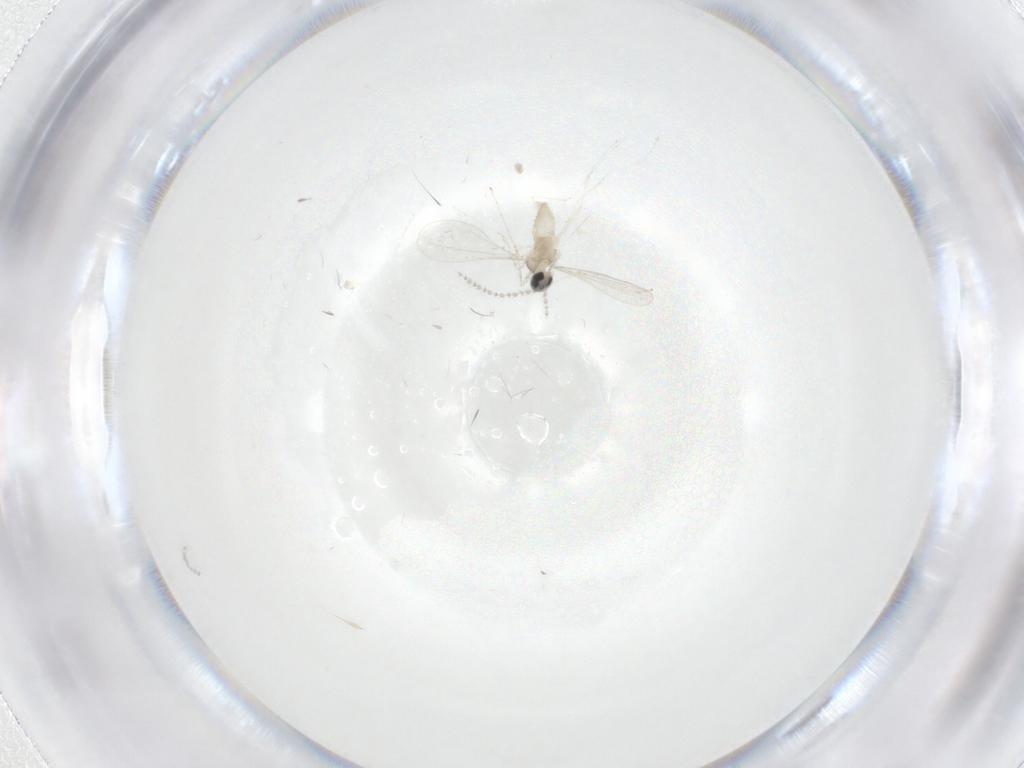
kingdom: Animalia
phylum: Arthropoda
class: Insecta
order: Diptera
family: Cecidomyiidae
